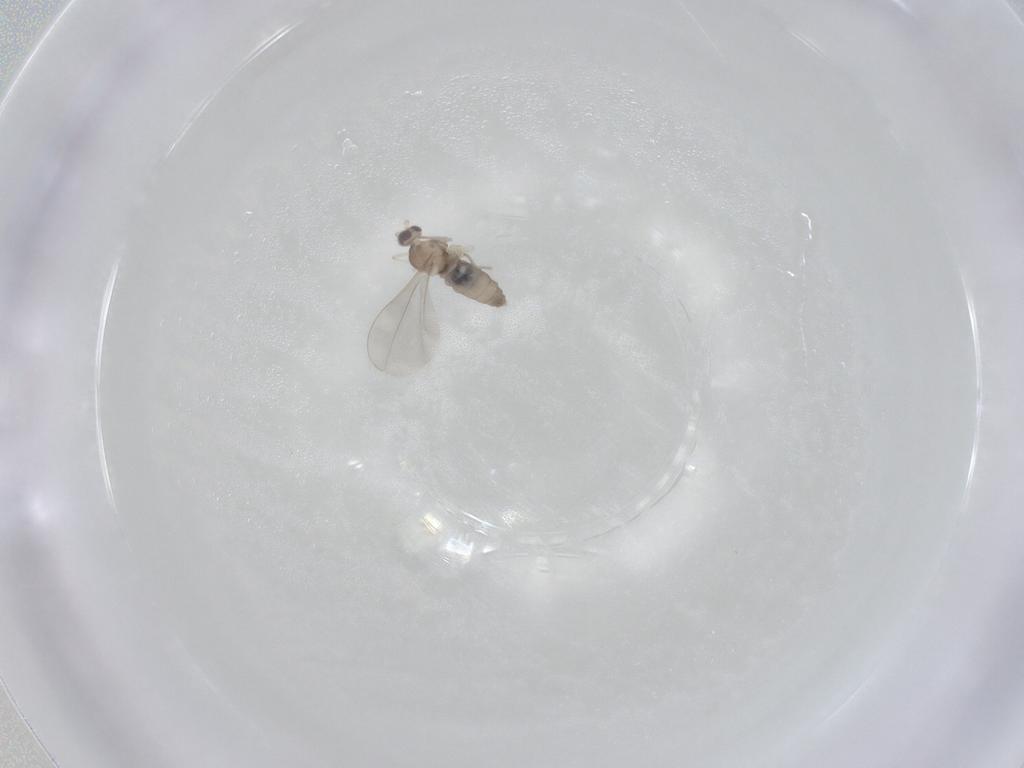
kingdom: Animalia
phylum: Arthropoda
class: Insecta
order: Diptera
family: Cecidomyiidae
